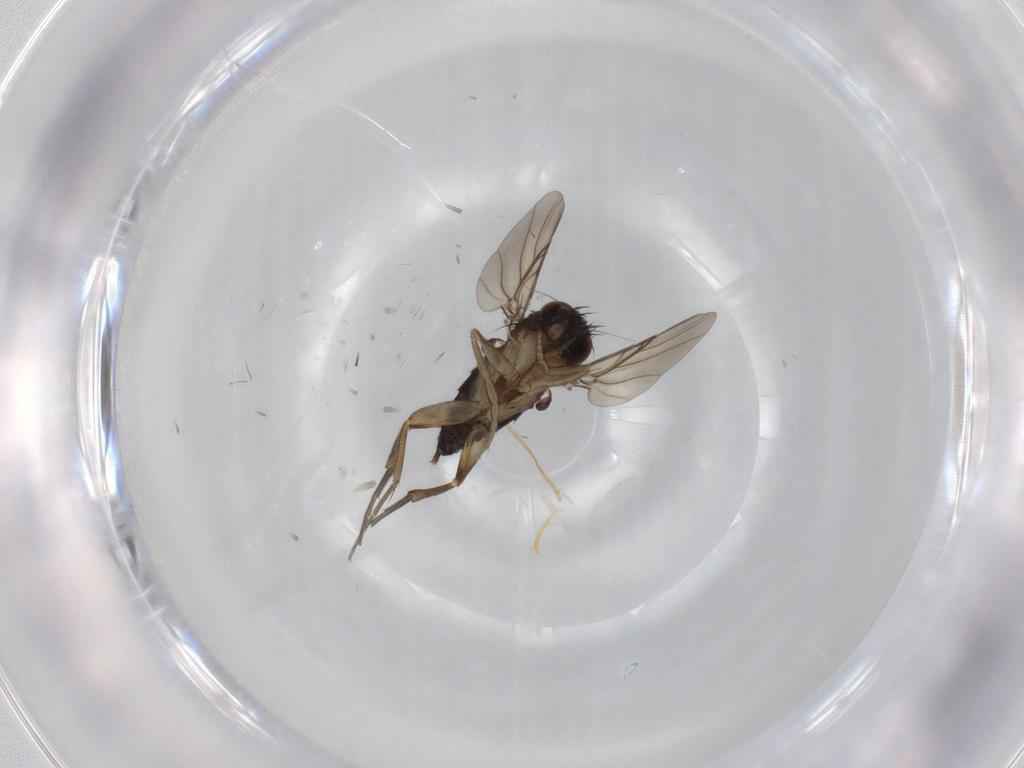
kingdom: Animalia
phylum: Arthropoda
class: Insecta
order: Diptera
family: Phoridae
